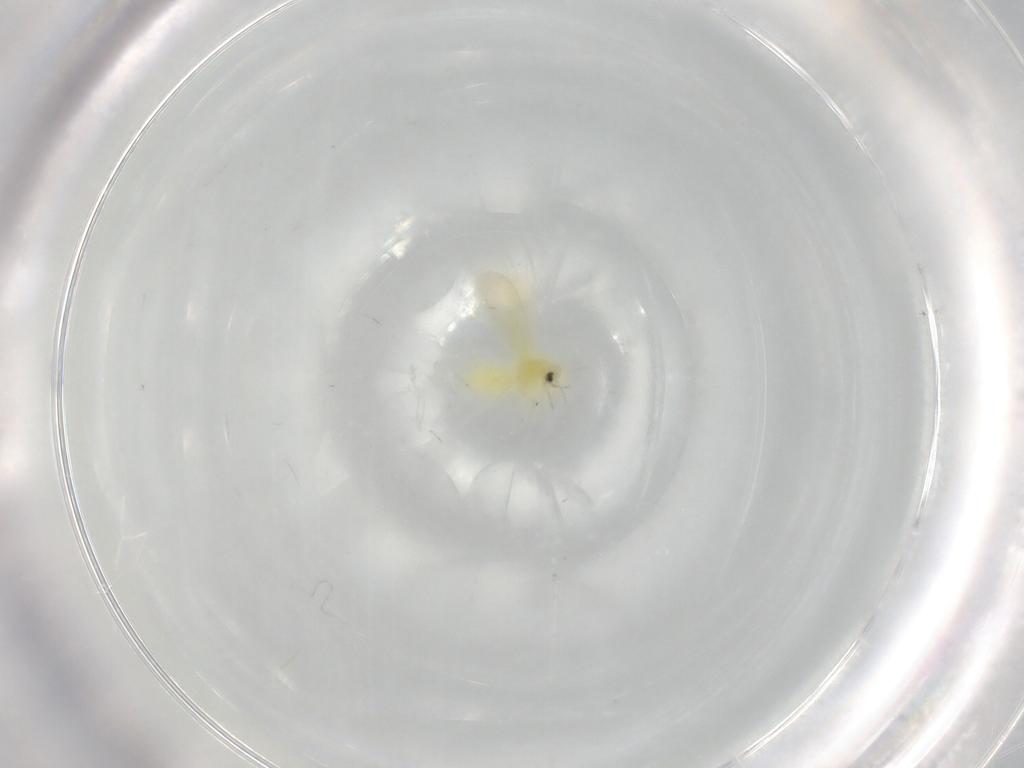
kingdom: Animalia
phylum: Arthropoda
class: Insecta
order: Hemiptera
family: Aleyrodidae
